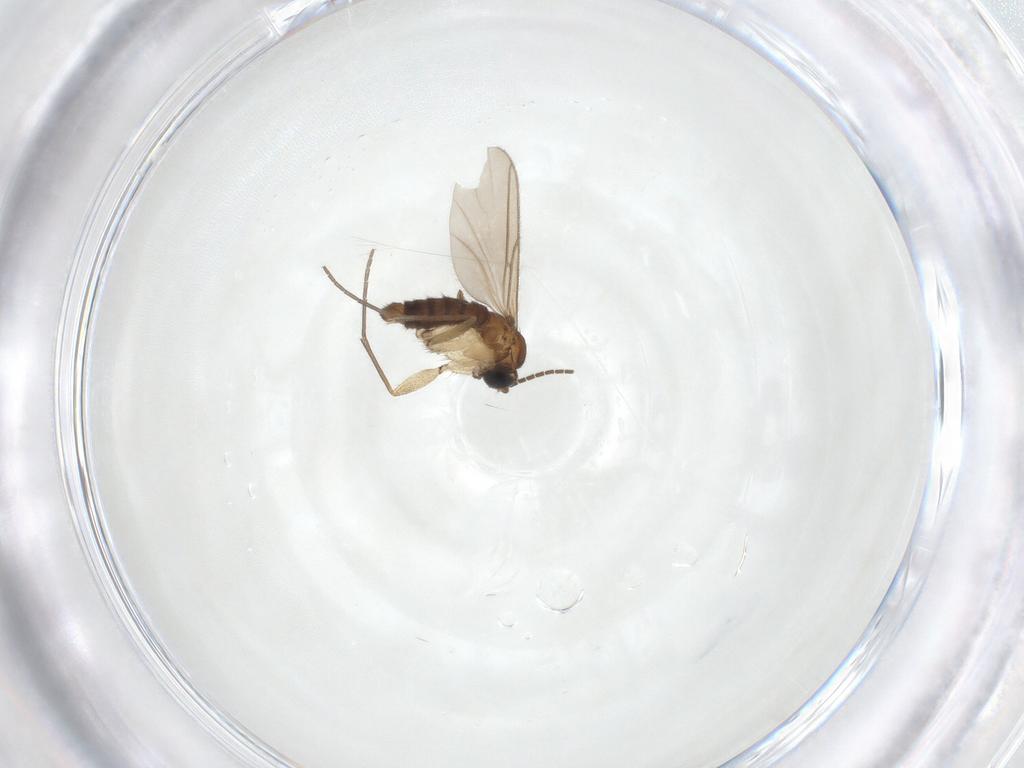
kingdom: Animalia
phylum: Arthropoda
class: Insecta
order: Diptera
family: Sciaridae
